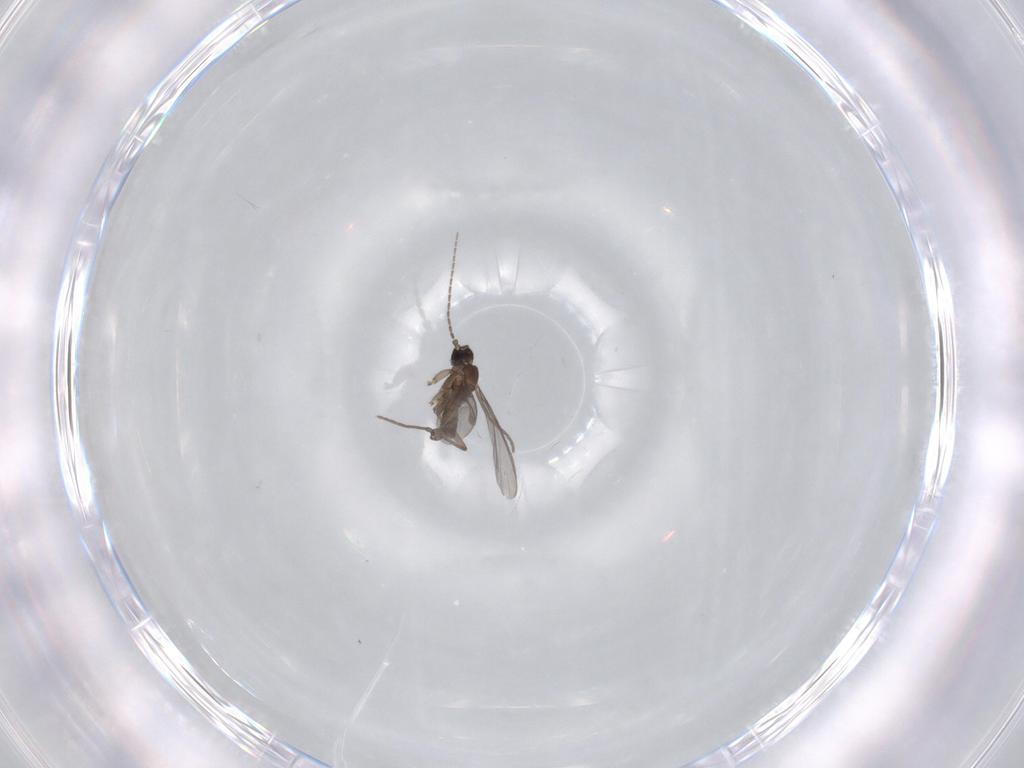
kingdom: Animalia
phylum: Arthropoda
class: Insecta
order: Diptera
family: Sciaridae
